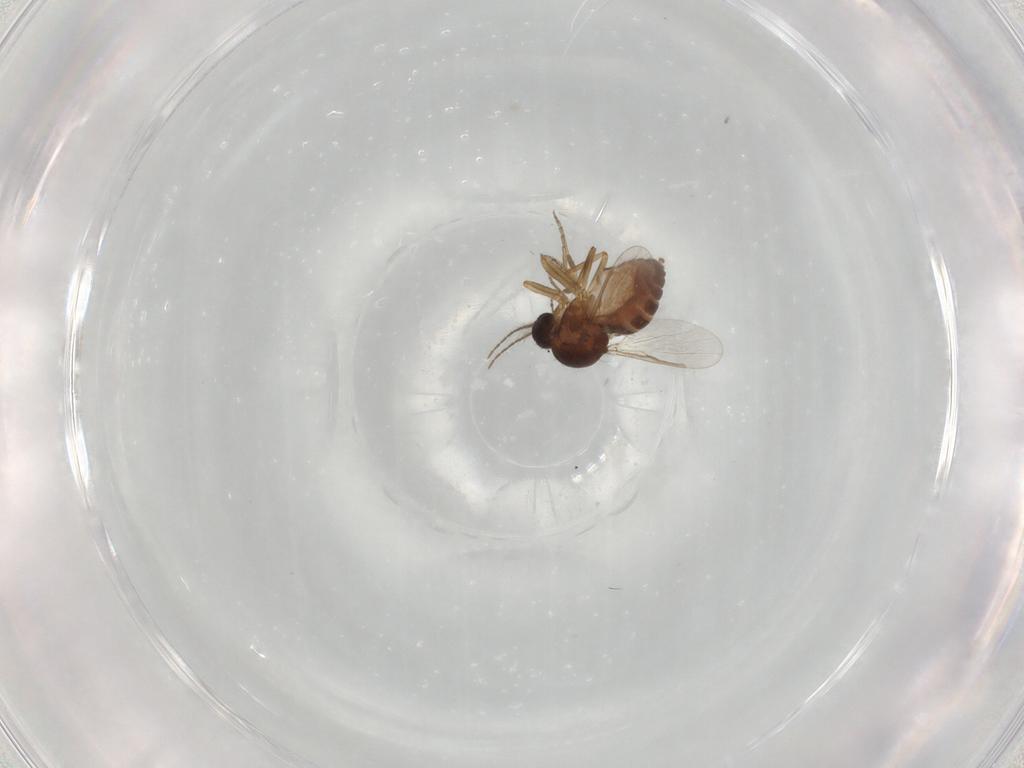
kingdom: Animalia
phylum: Arthropoda
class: Insecta
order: Diptera
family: Phoridae
